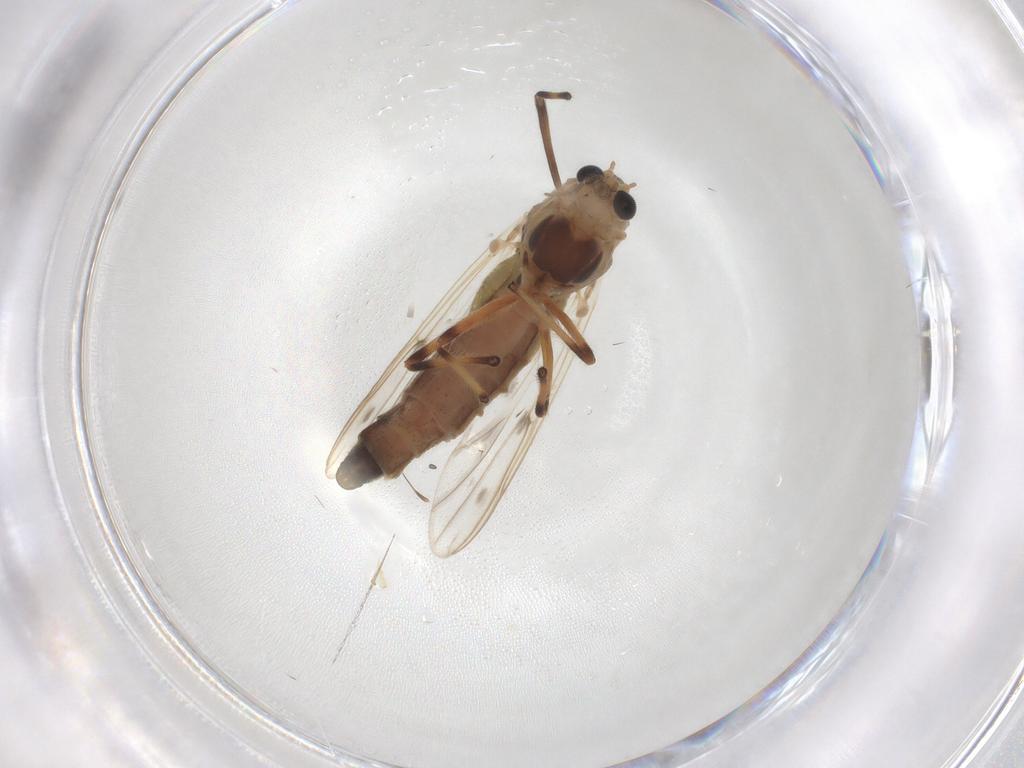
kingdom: Animalia
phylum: Arthropoda
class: Insecta
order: Diptera
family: Chironomidae
